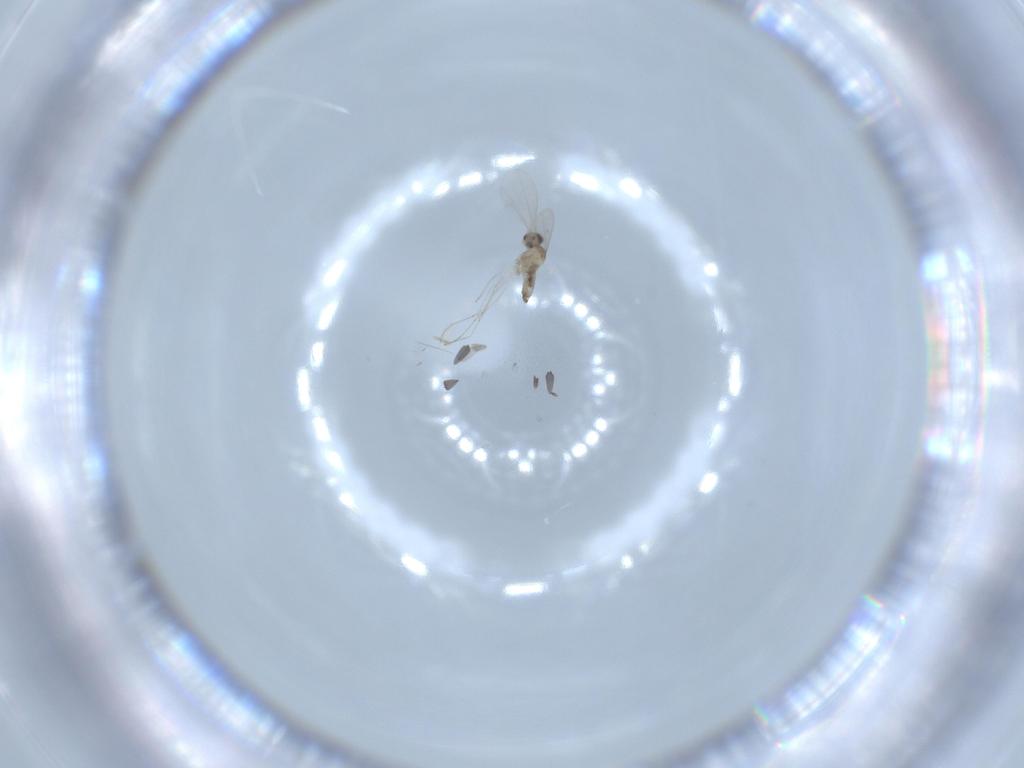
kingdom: Animalia
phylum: Arthropoda
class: Insecta
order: Diptera
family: Cecidomyiidae
